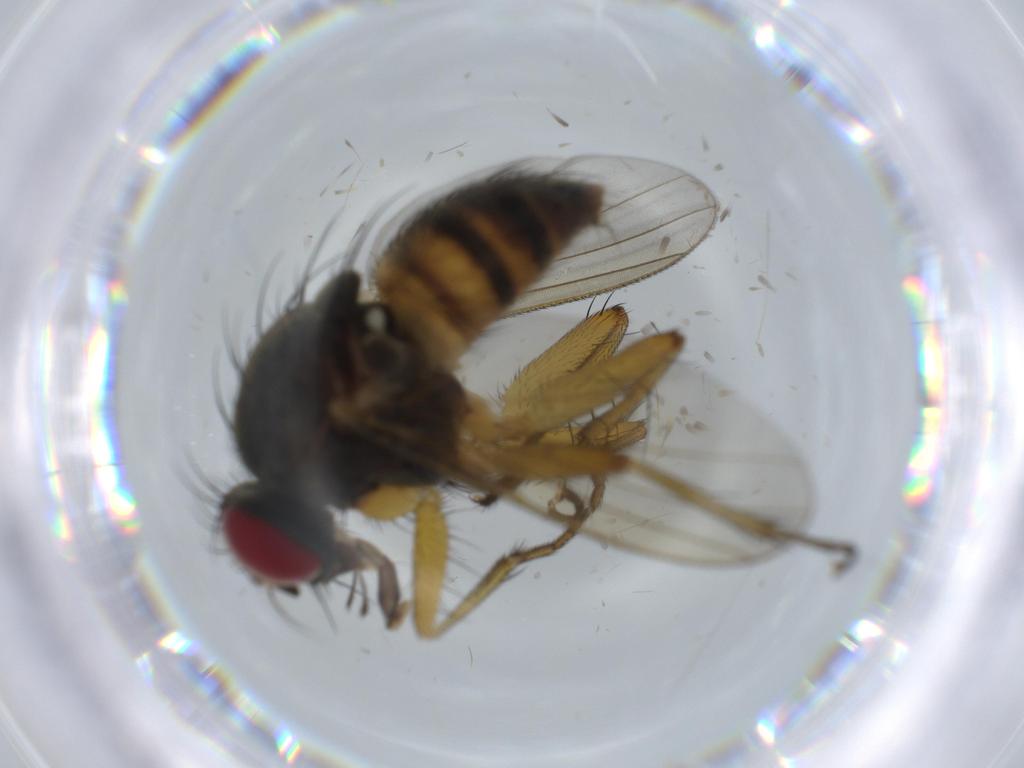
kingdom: Animalia
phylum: Arthropoda
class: Insecta
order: Diptera
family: Muscidae
